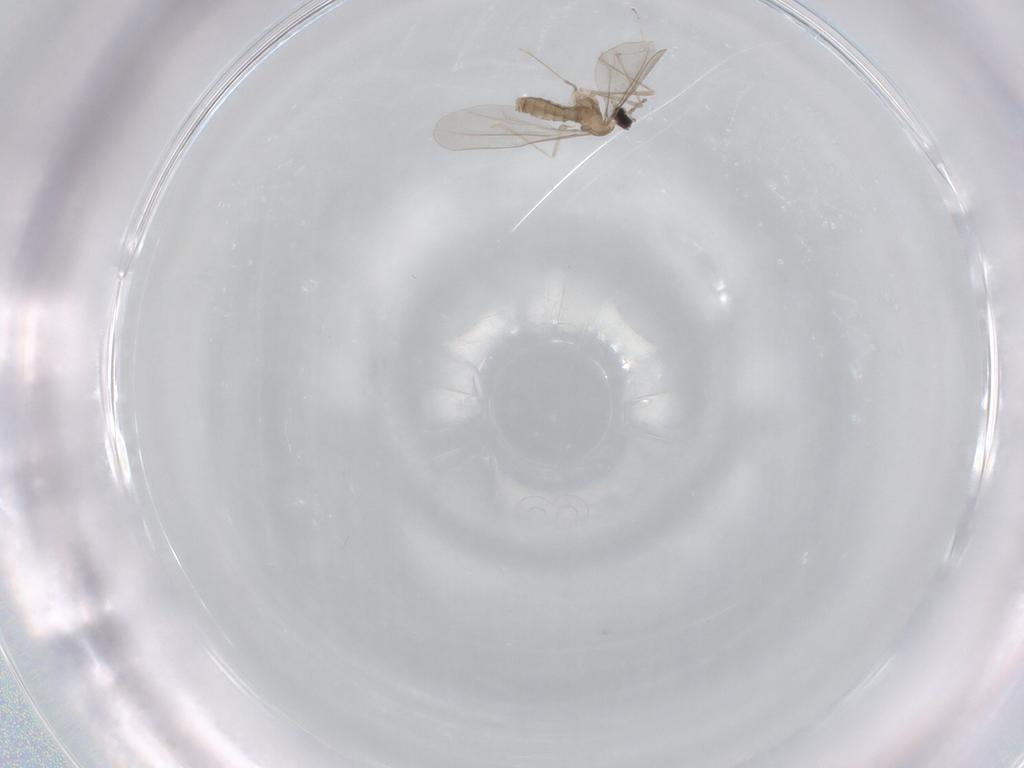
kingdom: Animalia
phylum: Arthropoda
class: Insecta
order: Diptera
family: Cecidomyiidae
